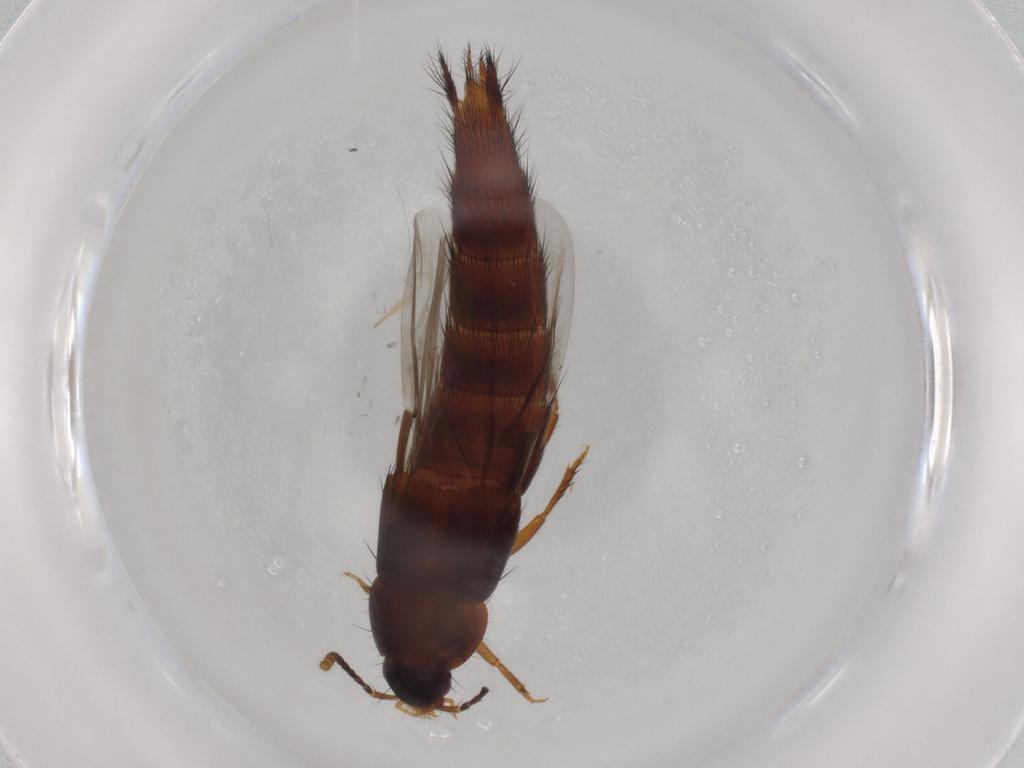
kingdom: Animalia
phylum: Arthropoda
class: Insecta
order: Coleoptera
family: Staphylinidae
